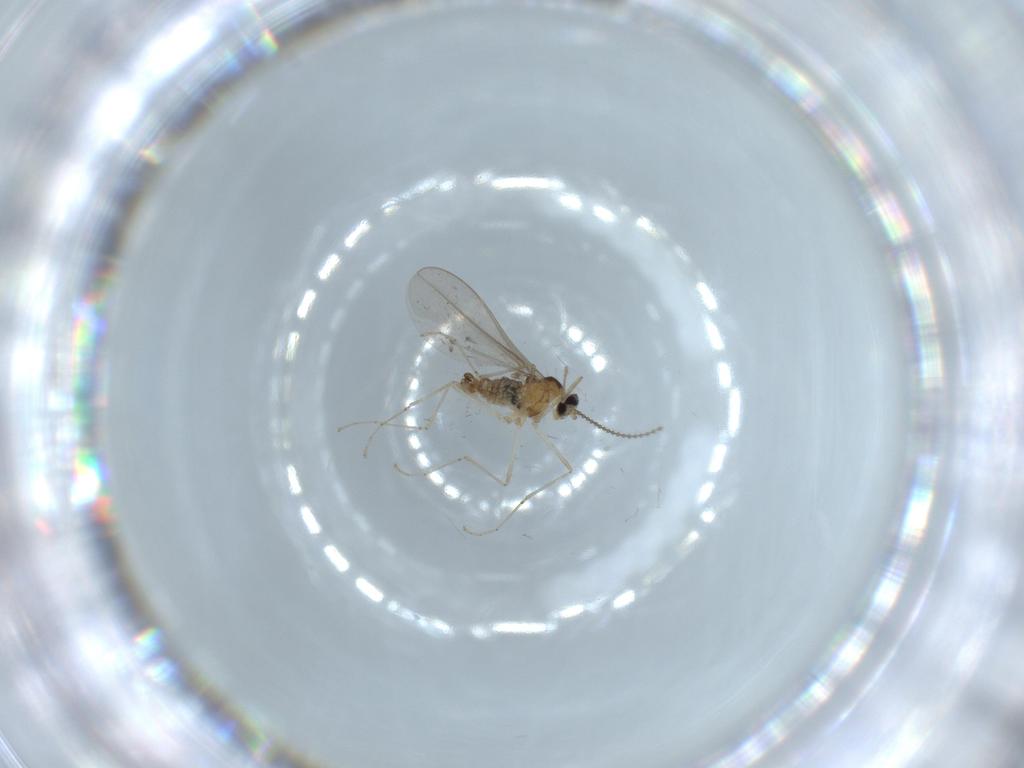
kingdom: Animalia
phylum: Arthropoda
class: Insecta
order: Diptera
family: Cecidomyiidae
